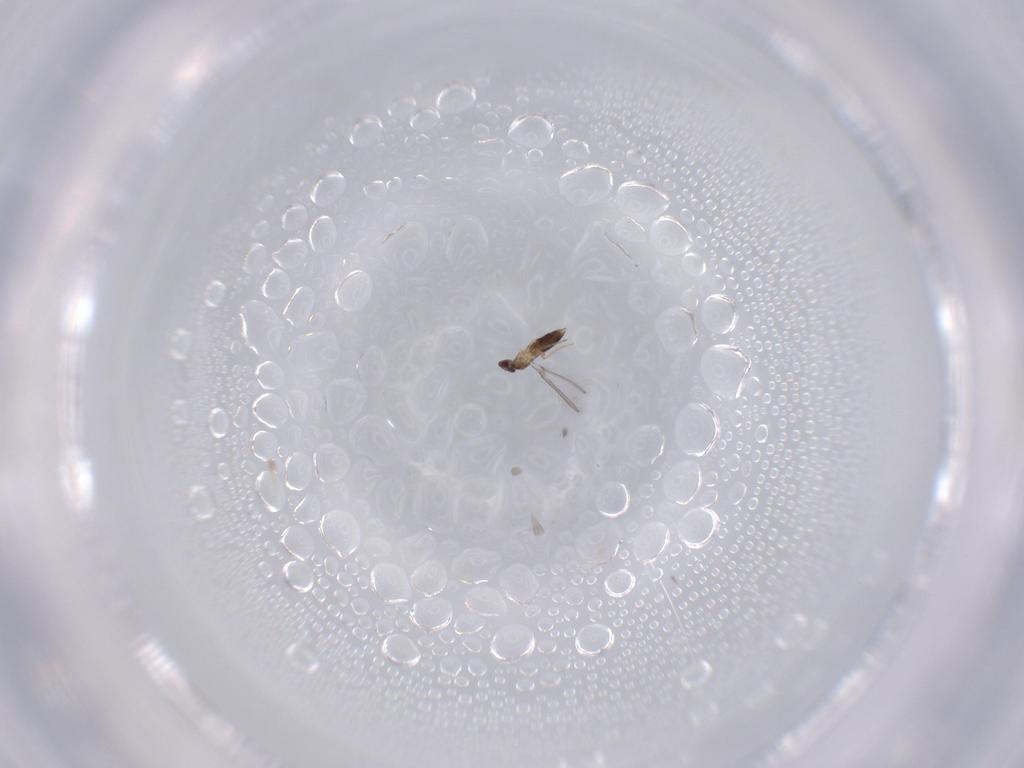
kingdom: Animalia
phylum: Arthropoda
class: Insecta
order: Hymenoptera
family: Mymaridae
